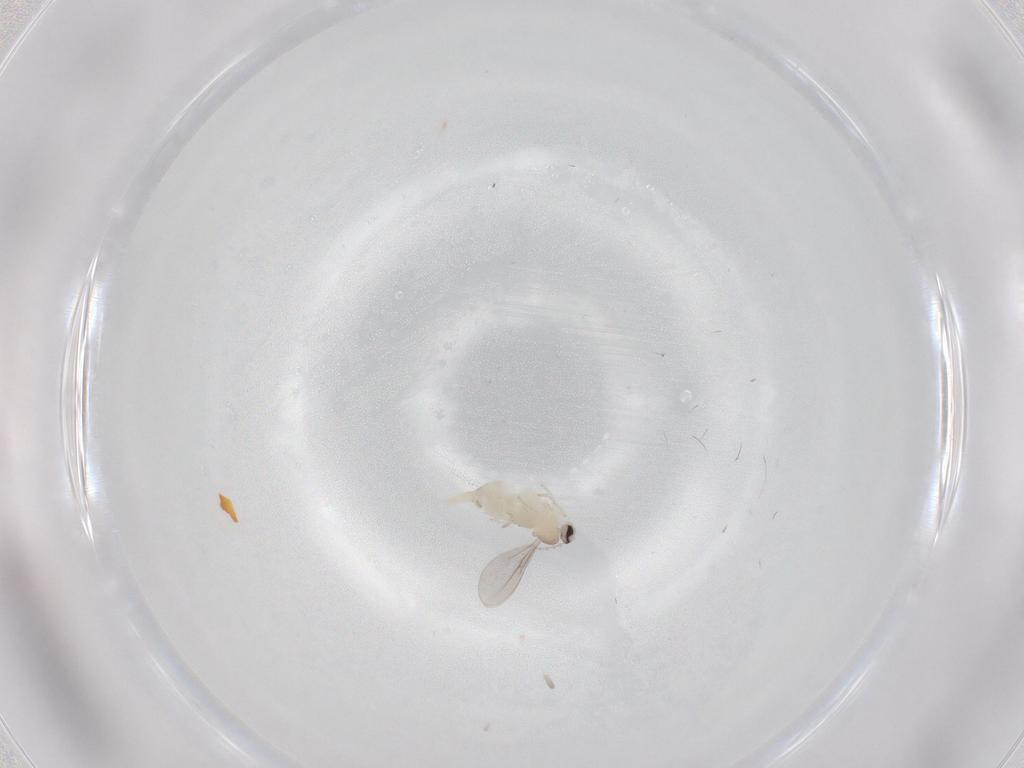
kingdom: Animalia
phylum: Arthropoda
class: Insecta
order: Diptera
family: Cecidomyiidae
